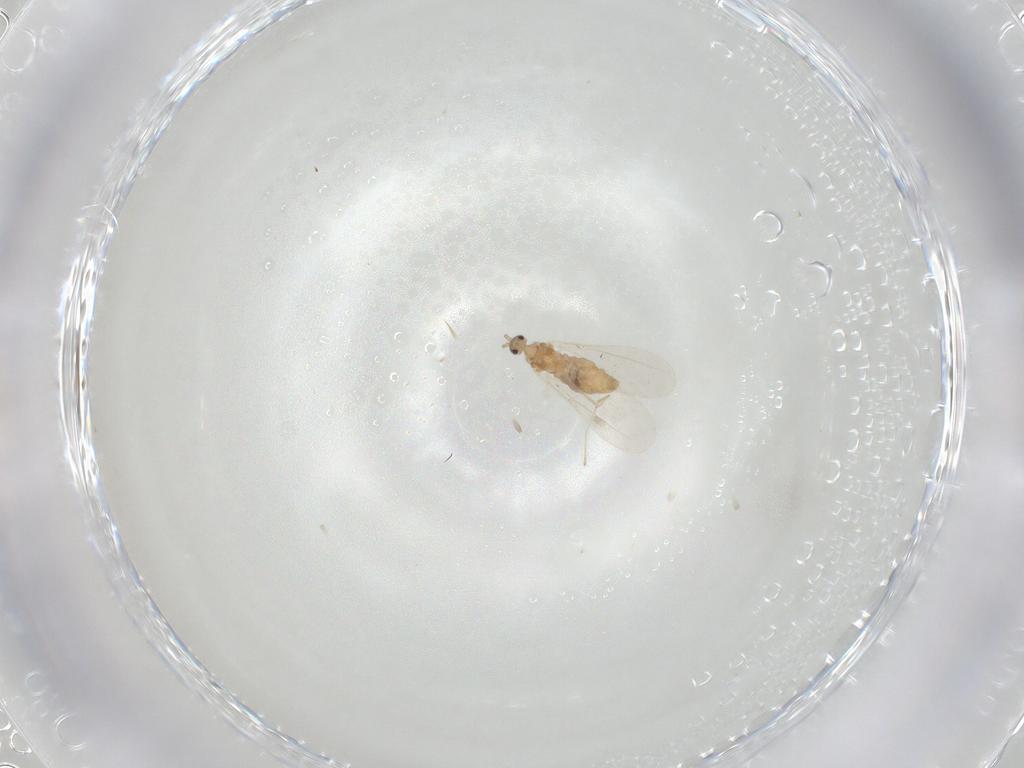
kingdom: Animalia
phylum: Arthropoda
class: Insecta
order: Diptera
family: Cecidomyiidae
